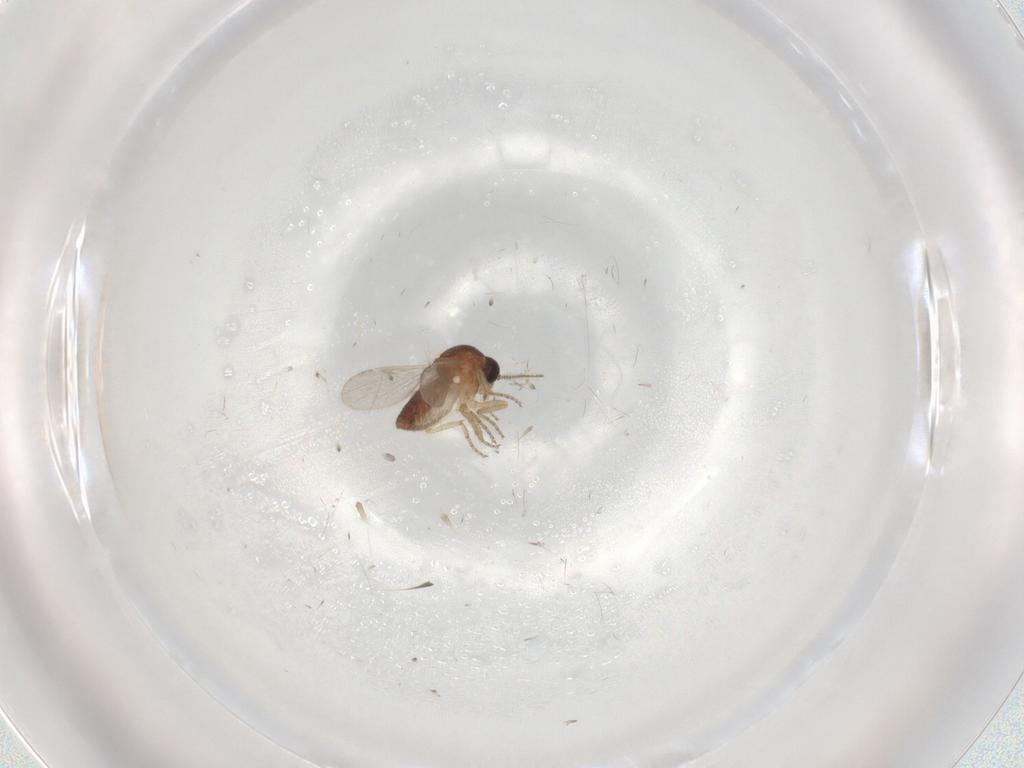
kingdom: Animalia
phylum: Arthropoda
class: Insecta
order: Diptera
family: Ceratopogonidae
